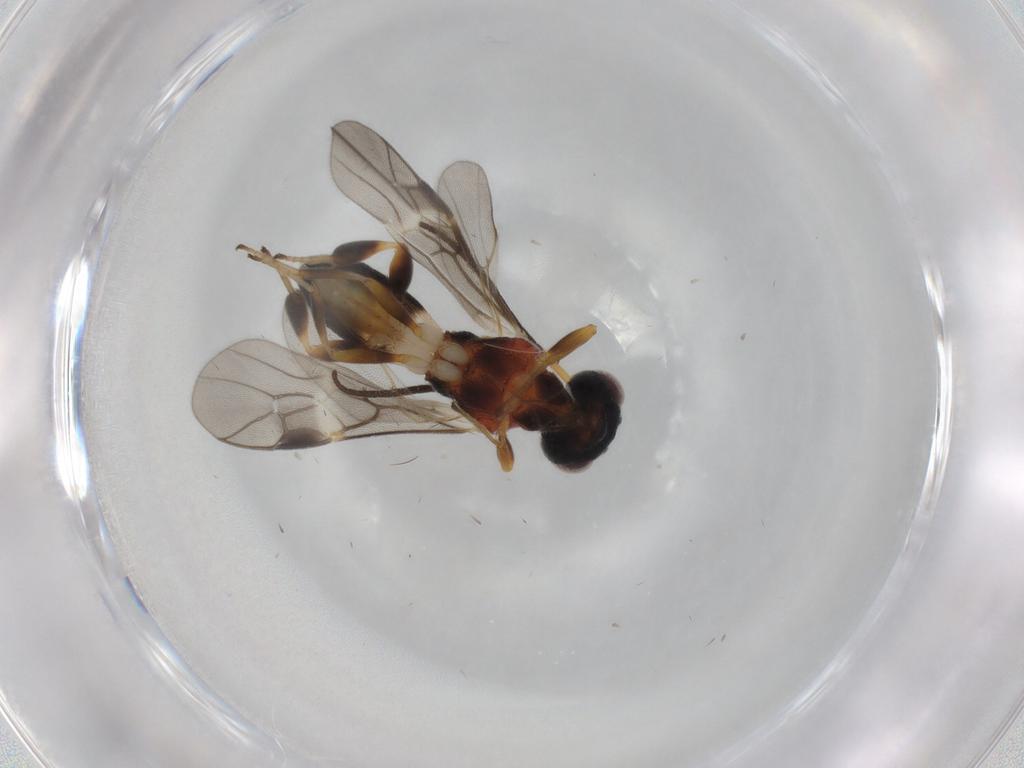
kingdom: Animalia
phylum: Arthropoda
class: Insecta
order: Hymenoptera
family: Braconidae
